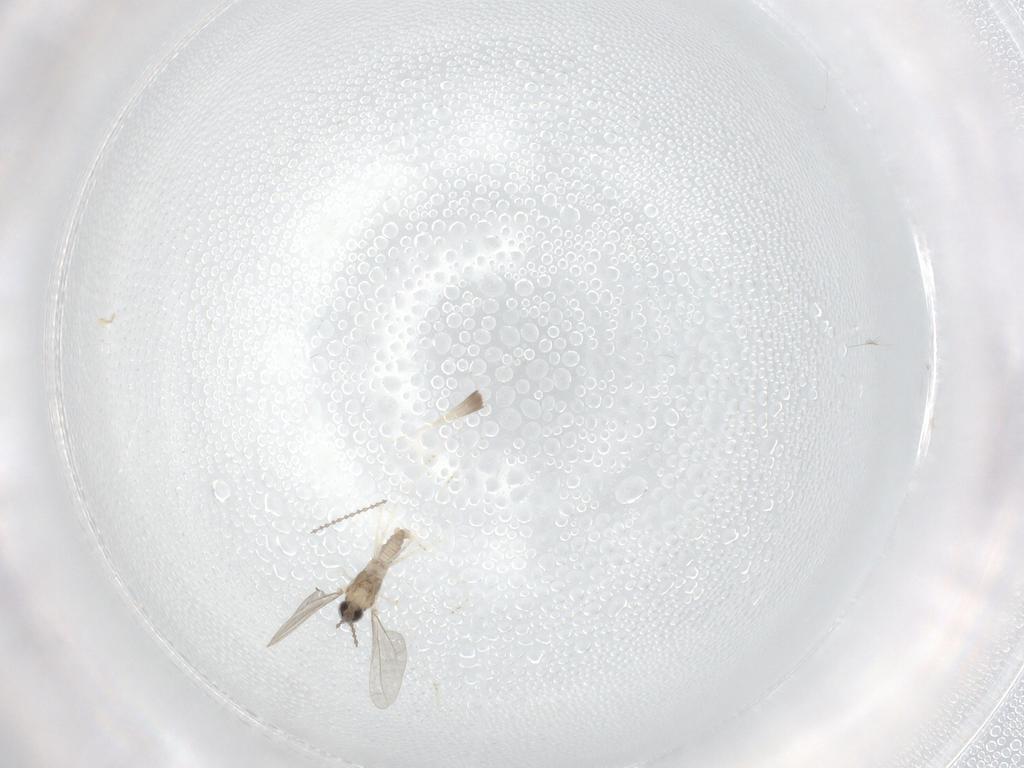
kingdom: Animalia
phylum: Arthropoda
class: Insecta
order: Diptera
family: Cecidomyiidae
